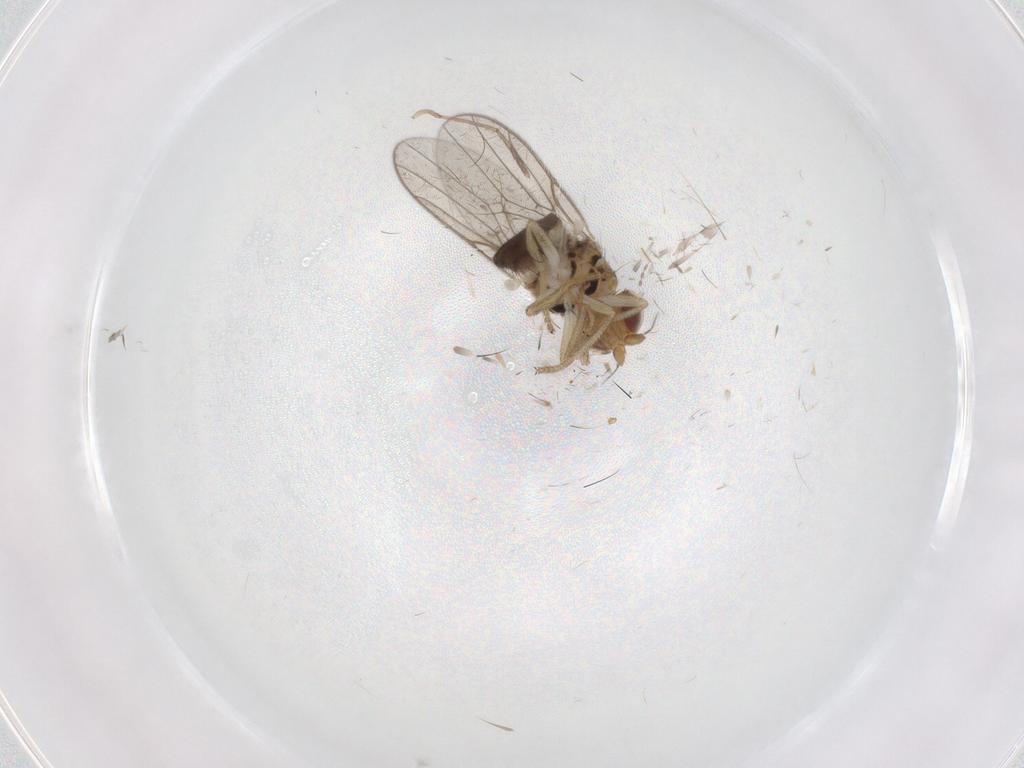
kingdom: Animalia
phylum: Arthropoda
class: Insecta
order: Diptera
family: Chloropidae
